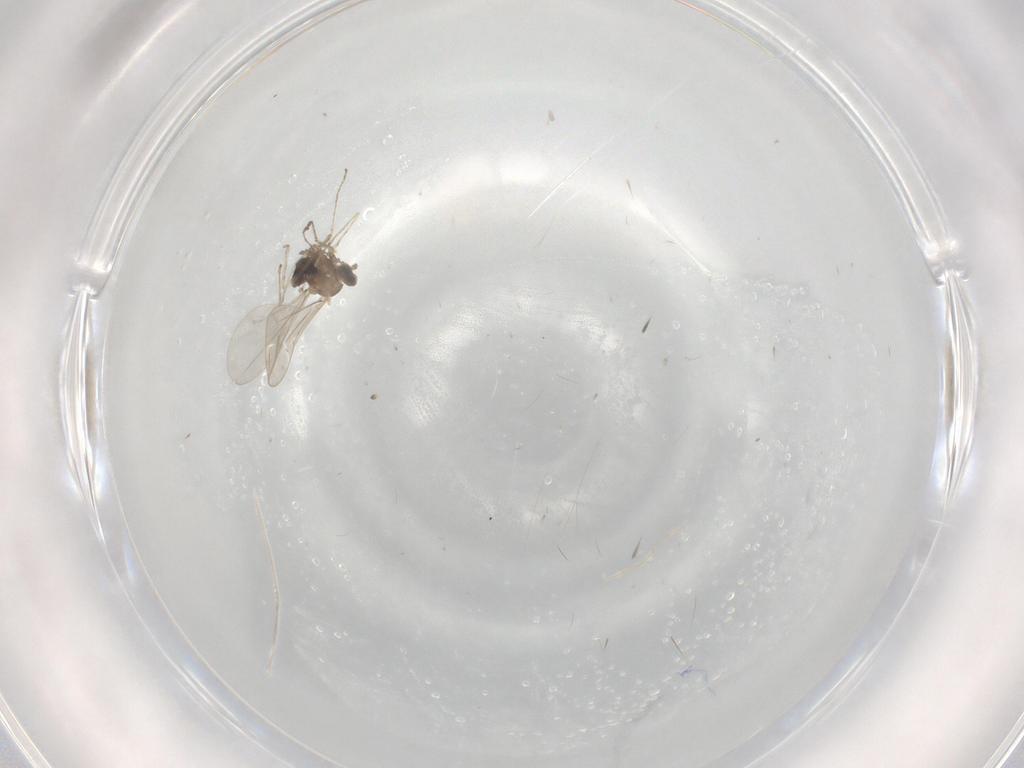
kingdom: Animalia
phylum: Arthropoda
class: Insecta
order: Diptera
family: Cecidomyiidae
